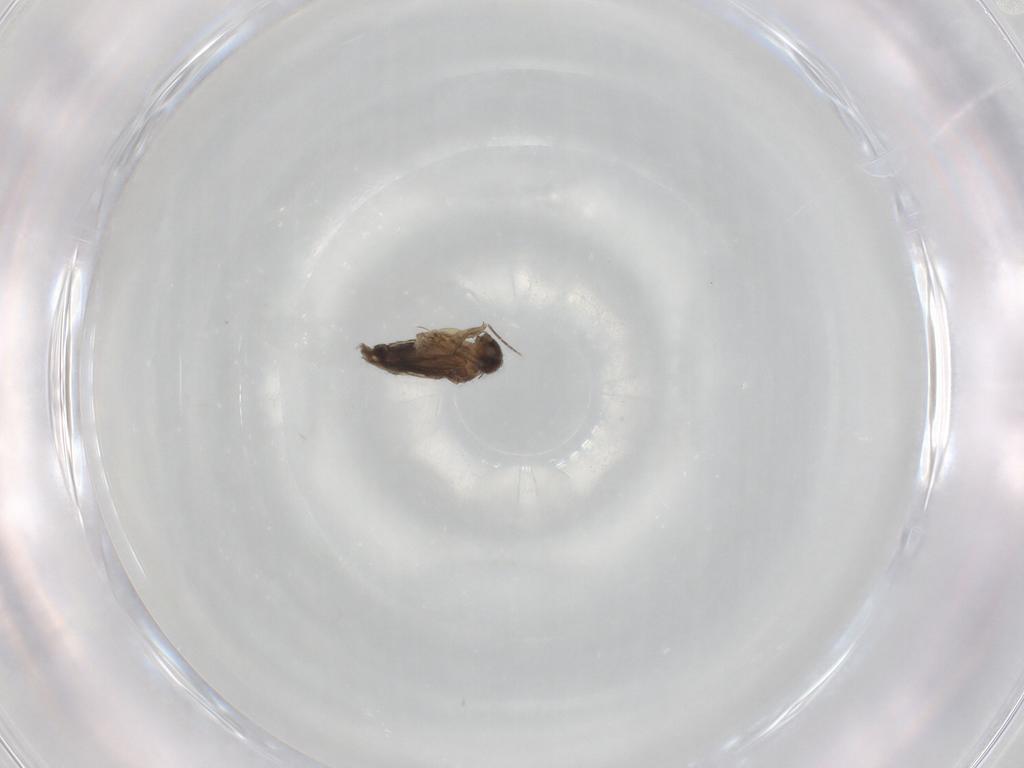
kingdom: Animalia
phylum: Arthropoda
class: Insecta
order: Diptera
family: Phoridae
